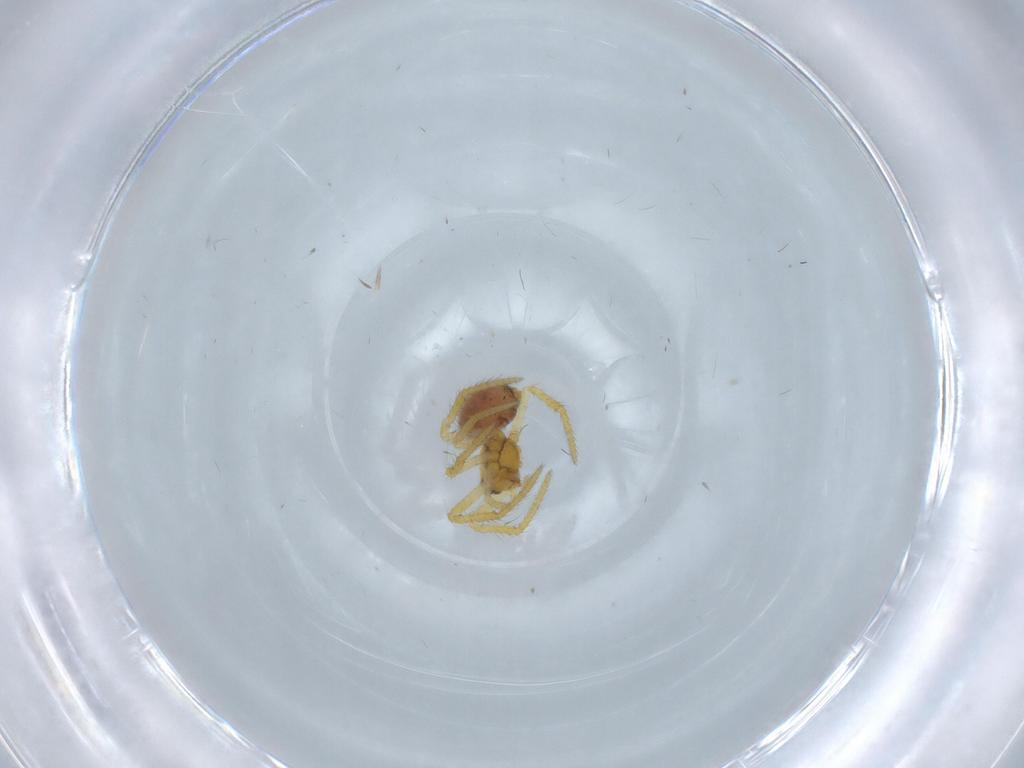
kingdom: Animalia
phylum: Arthropoda
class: Arachnida
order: Araneae
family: Theridiidae
